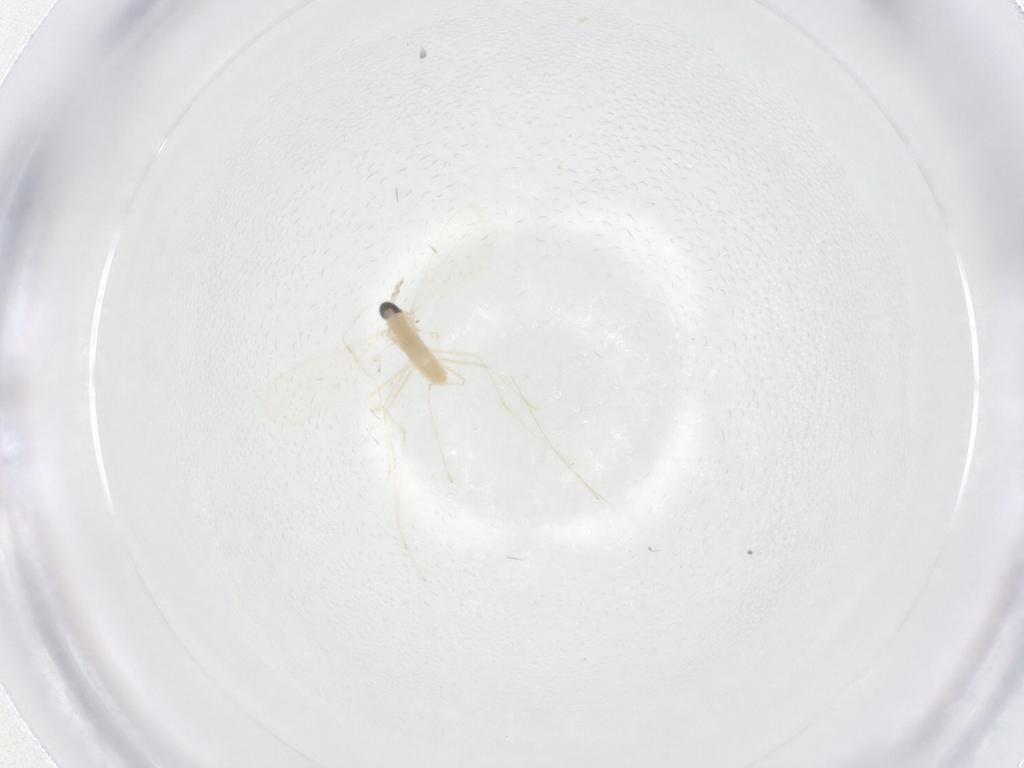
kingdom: Animalia
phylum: Arthropoda
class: Insecta
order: Diptera
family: Cecidomyiidae
